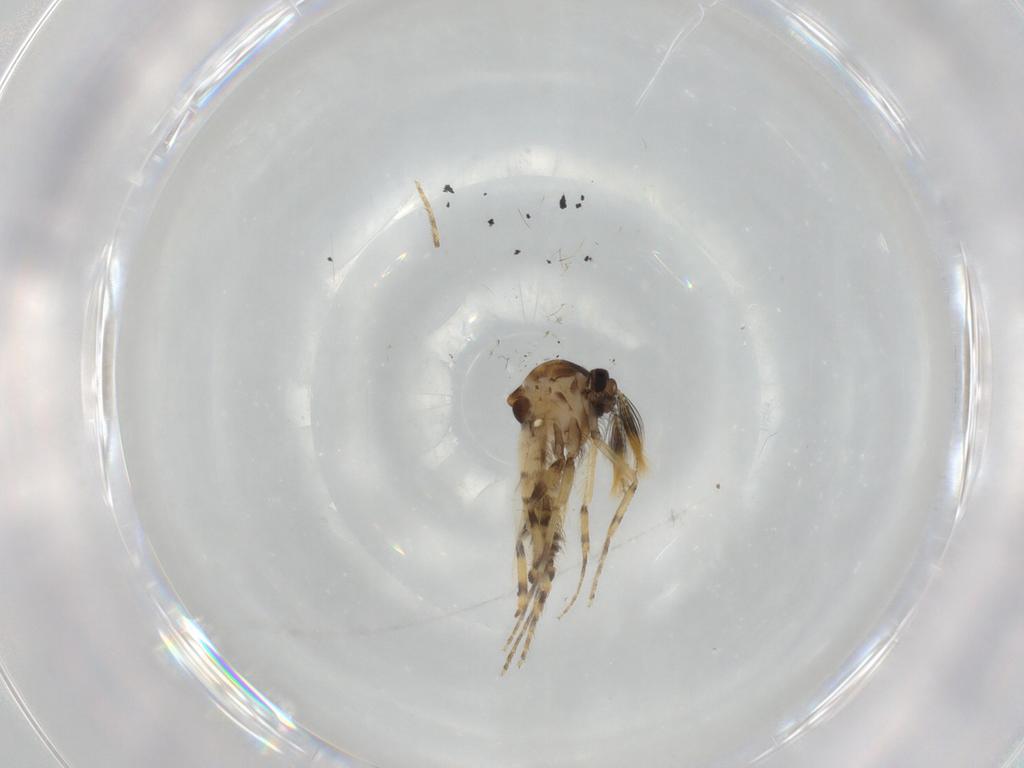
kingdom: Animalia
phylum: Arthropoda
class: Insecta
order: Diptera
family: Ceratopogonidae
